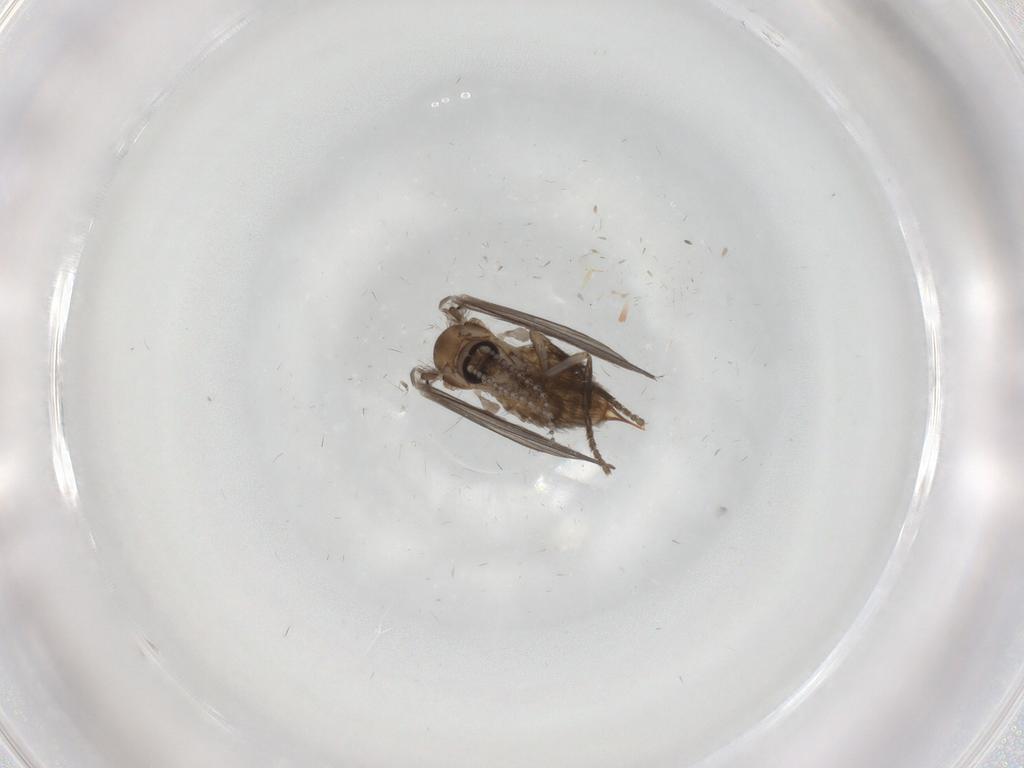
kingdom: Animalia
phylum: Arthropoda
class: Insecta
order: Diptera
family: Psychodidae
